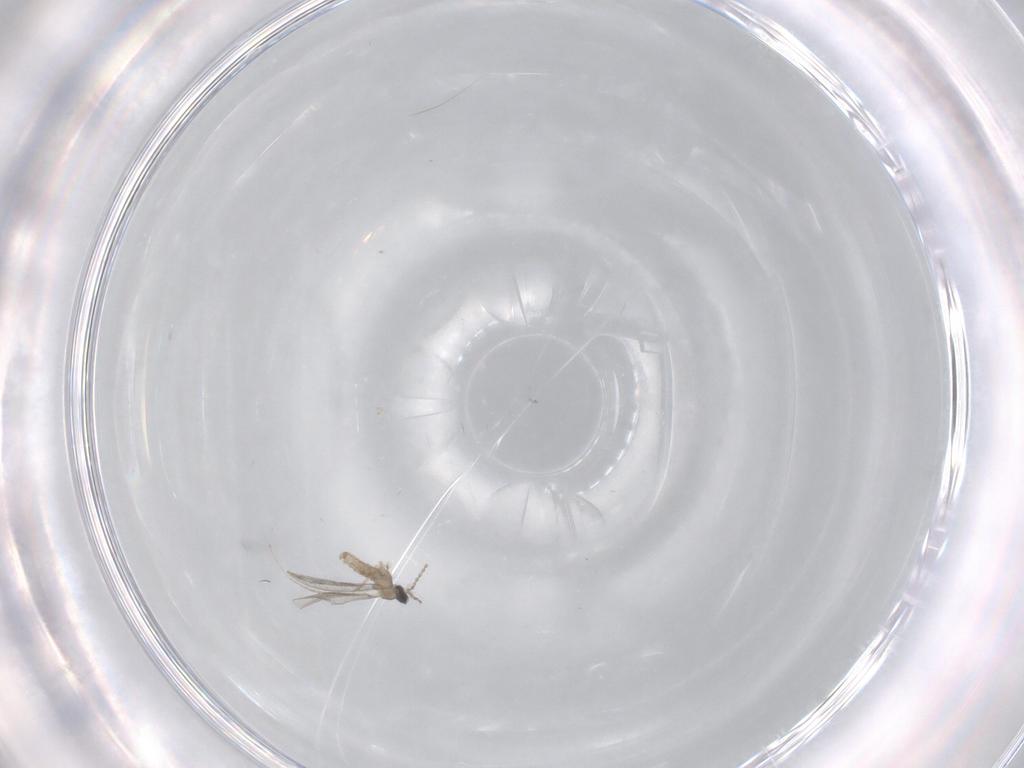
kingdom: Animalia
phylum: Arthropoda
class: Insecta
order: Diptera
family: Cecidomyiidae
